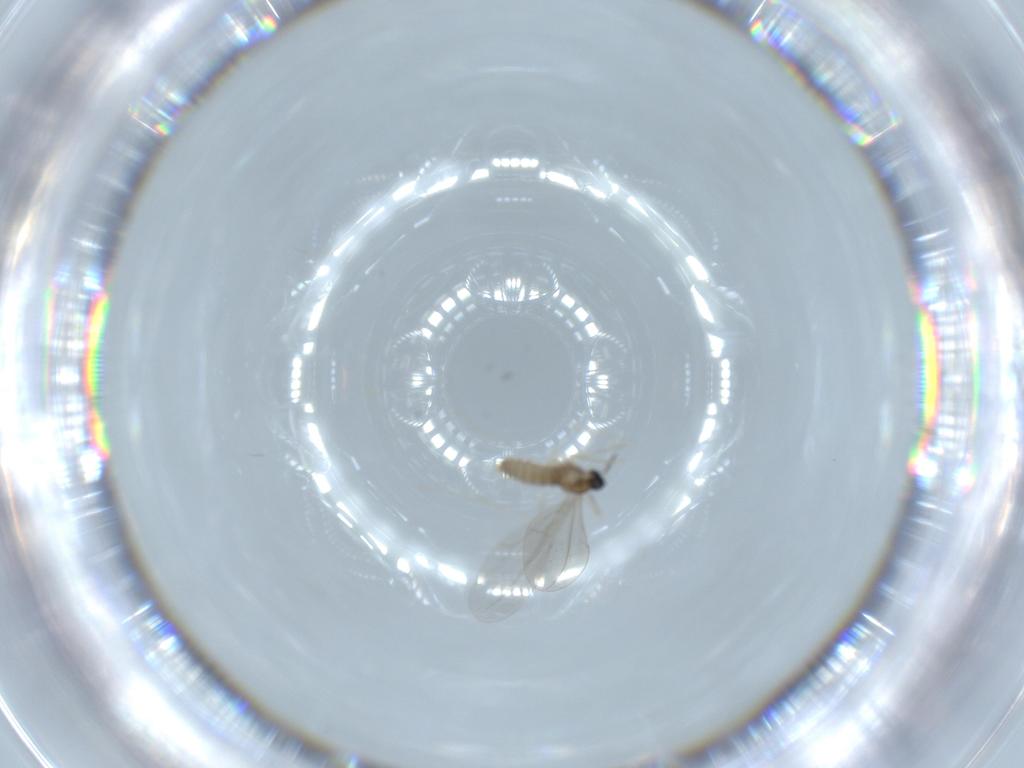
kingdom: Animalia
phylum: Arthropoda
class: Insecta
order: Diptera
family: Cecidomyiidae
